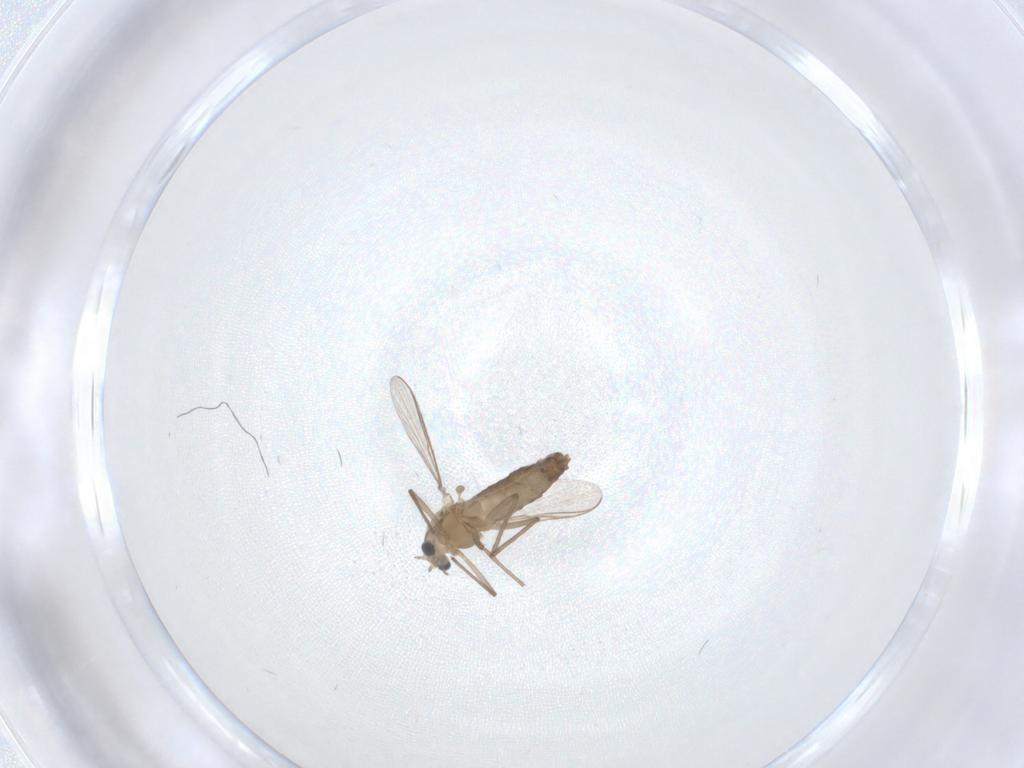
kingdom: Animalia
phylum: Arthropoda
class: Insecta
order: Diptera
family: Chironomidae
